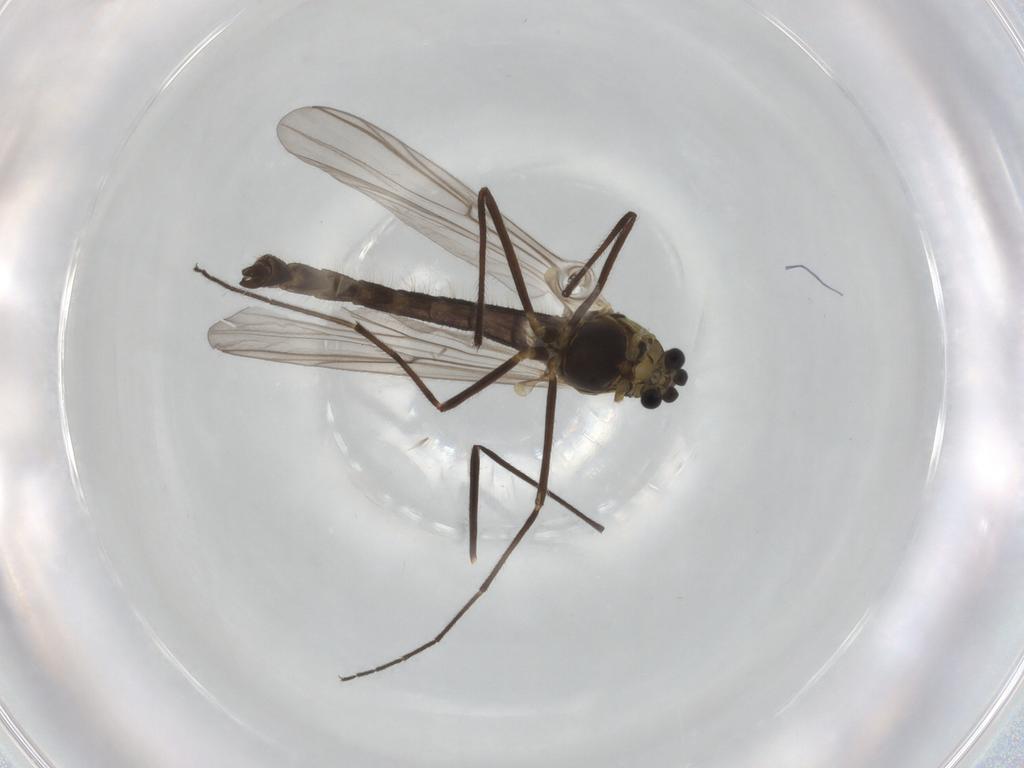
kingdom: Animalia
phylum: Arthropoda
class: Insecta
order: Diptera
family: Chironomidae
